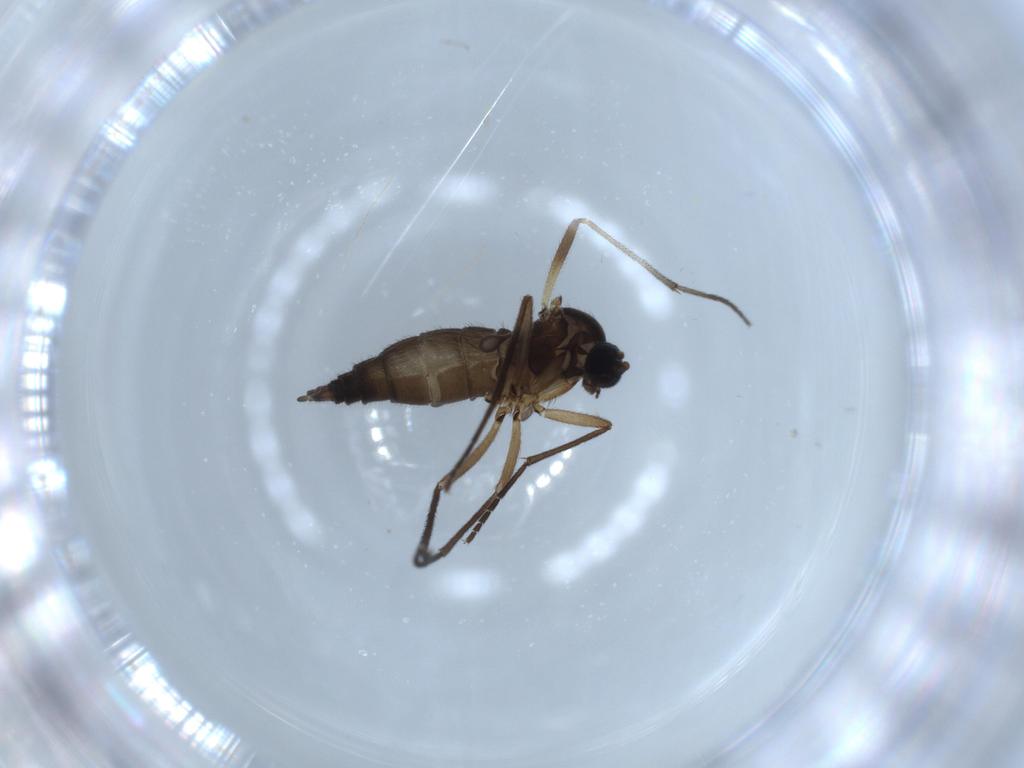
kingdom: Animalia
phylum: Arthropoda
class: Insecta
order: Diptera
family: Sciaridae
